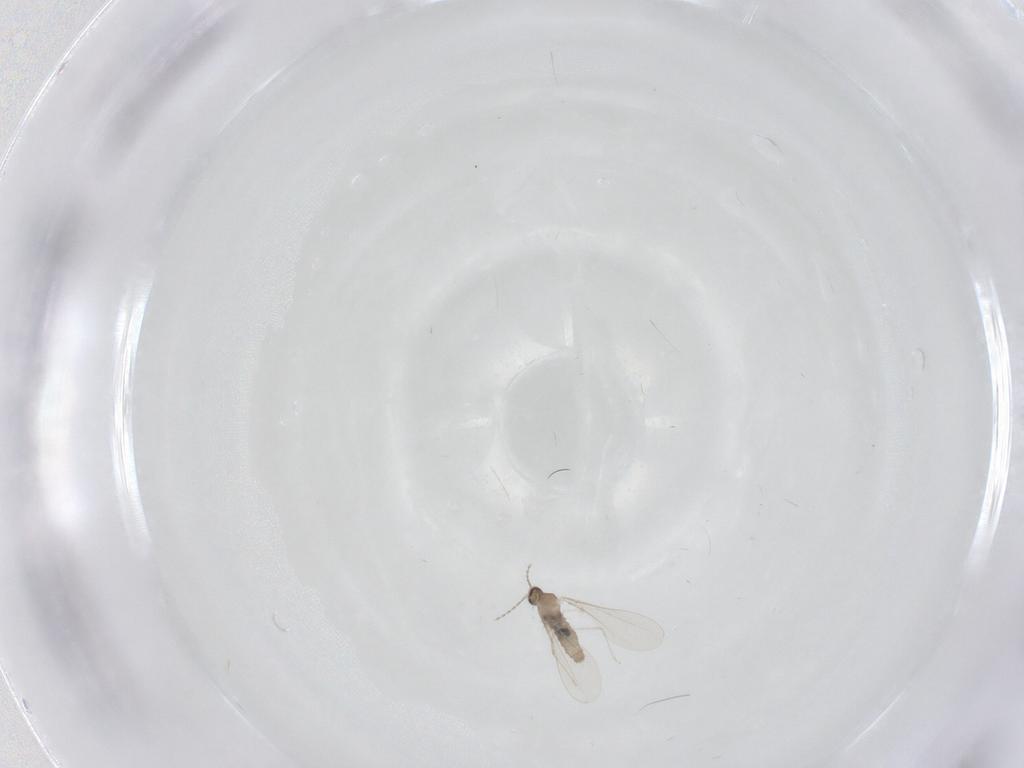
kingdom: Animalia
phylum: Arthropoda
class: Insecta
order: Diptera
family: Cecidomyiidae
